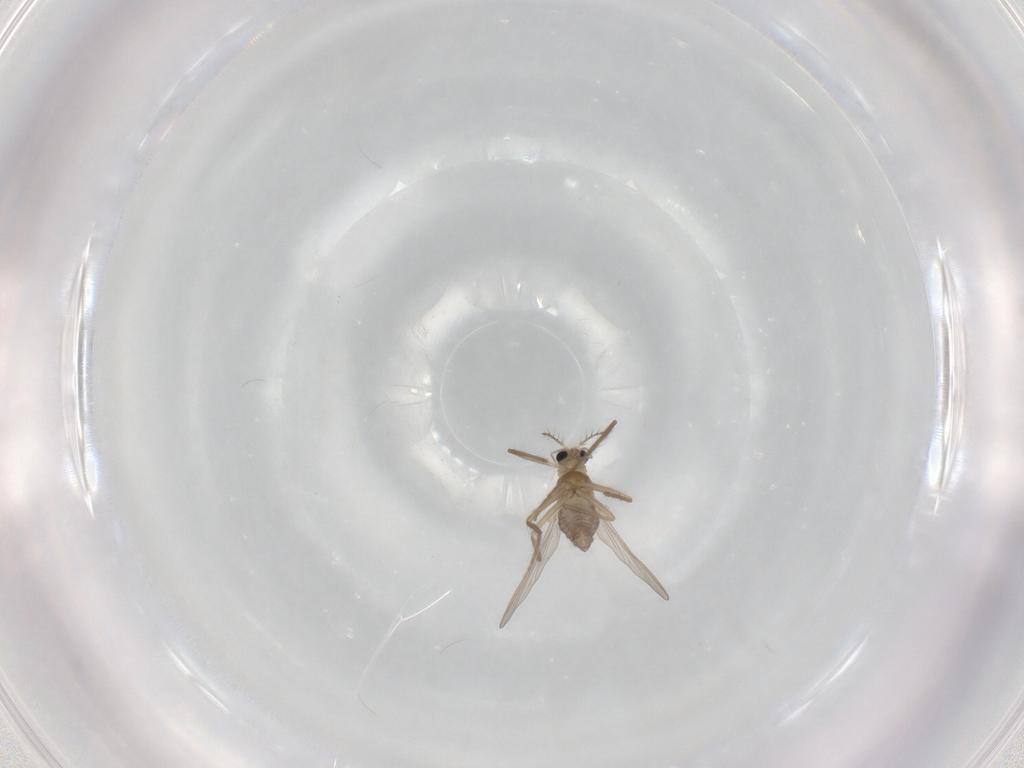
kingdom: Animalia
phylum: Arthropoda
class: Insecta
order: Diptera
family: Chironomidae
